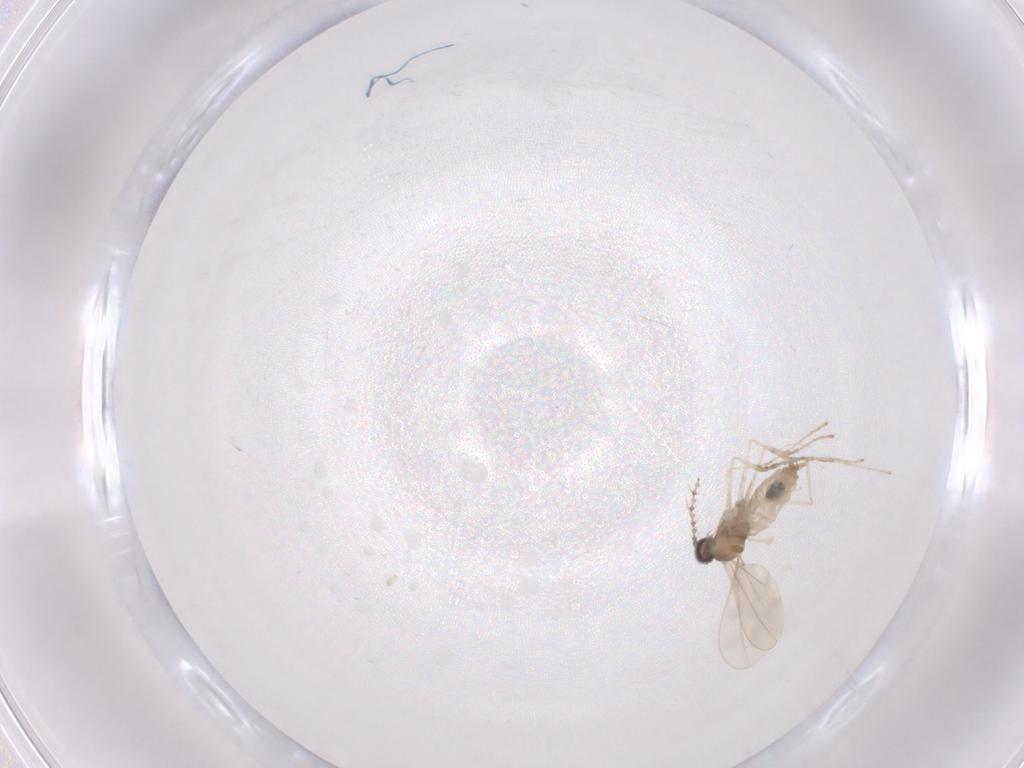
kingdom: Animalia
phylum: Arthropoda
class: Insecta
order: Diptera
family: Cecidomyiidae
